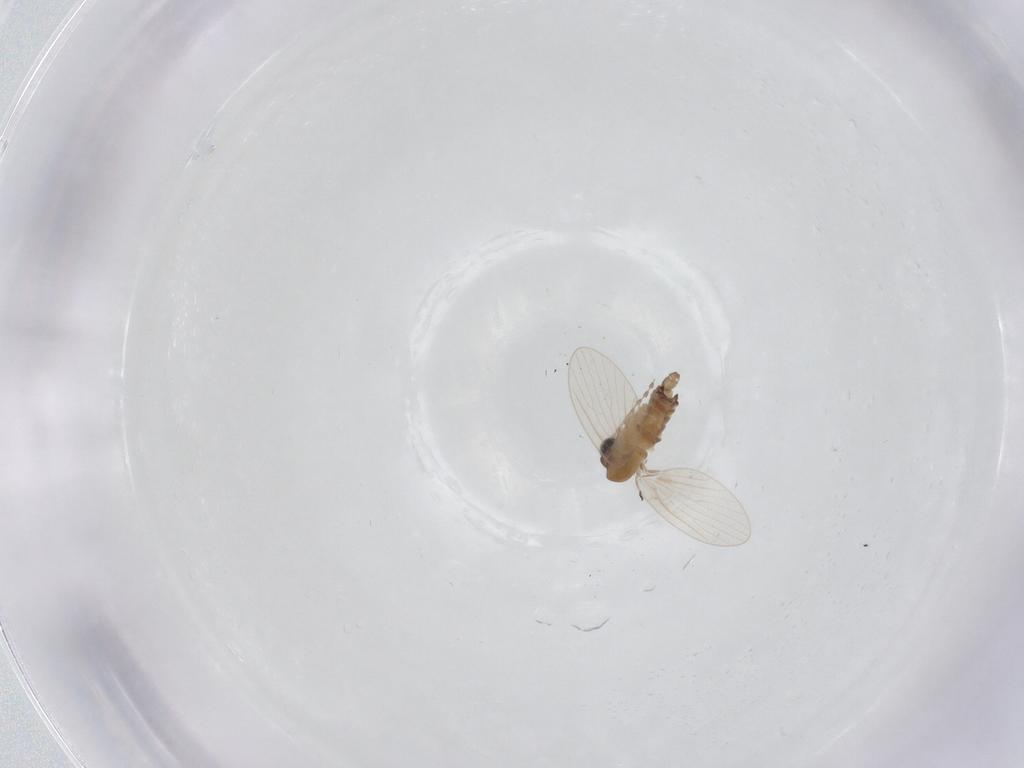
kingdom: Animalia
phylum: Arthropoda
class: Insecta
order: Diptera
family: Psychodidae
